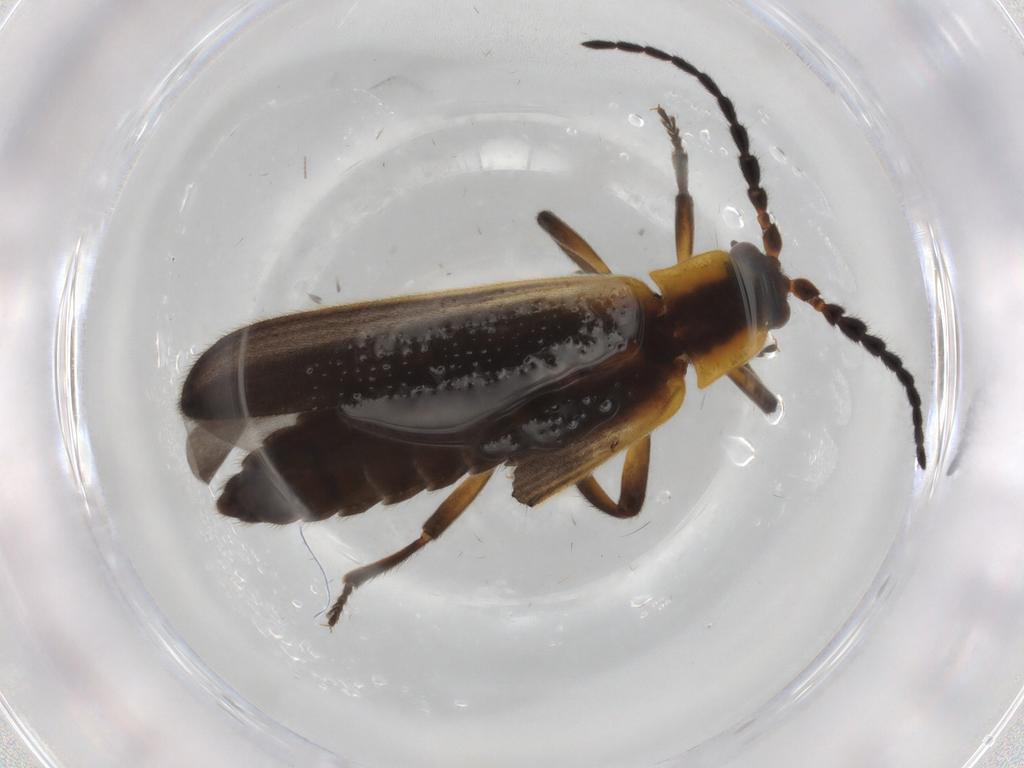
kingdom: Animalia
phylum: Arthropoda
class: Insecta
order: Coleoptera
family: Lycidae
